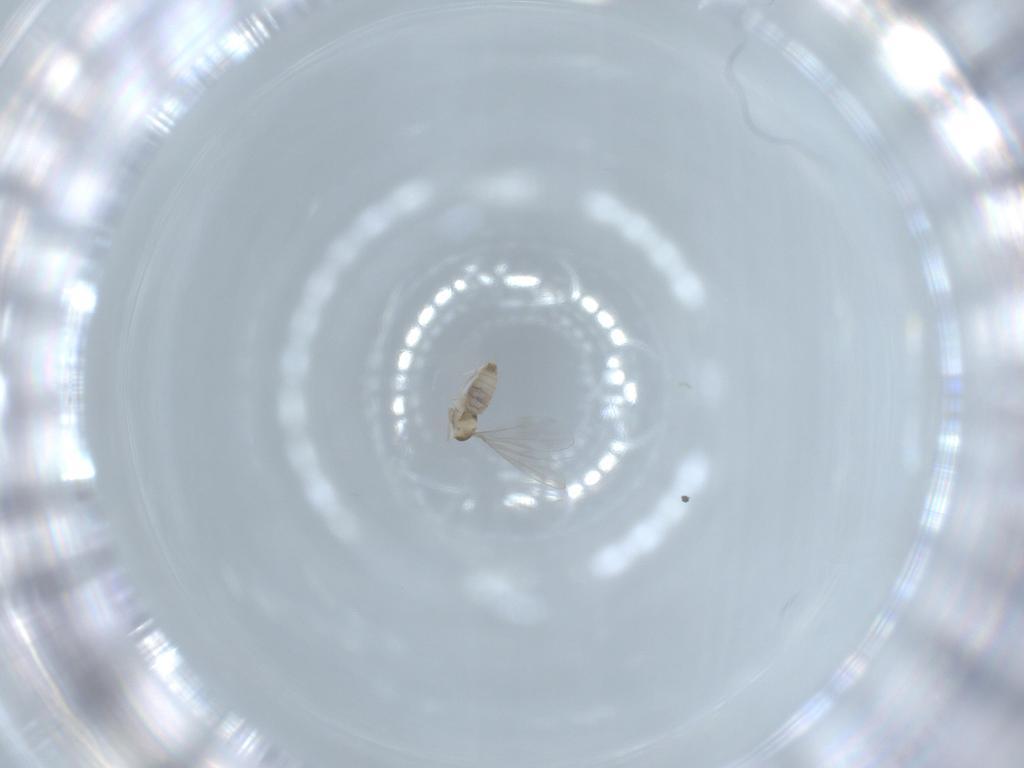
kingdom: Animalia
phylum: Arthropoda
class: Insecta
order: Diptera
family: Cecidomyiidae
